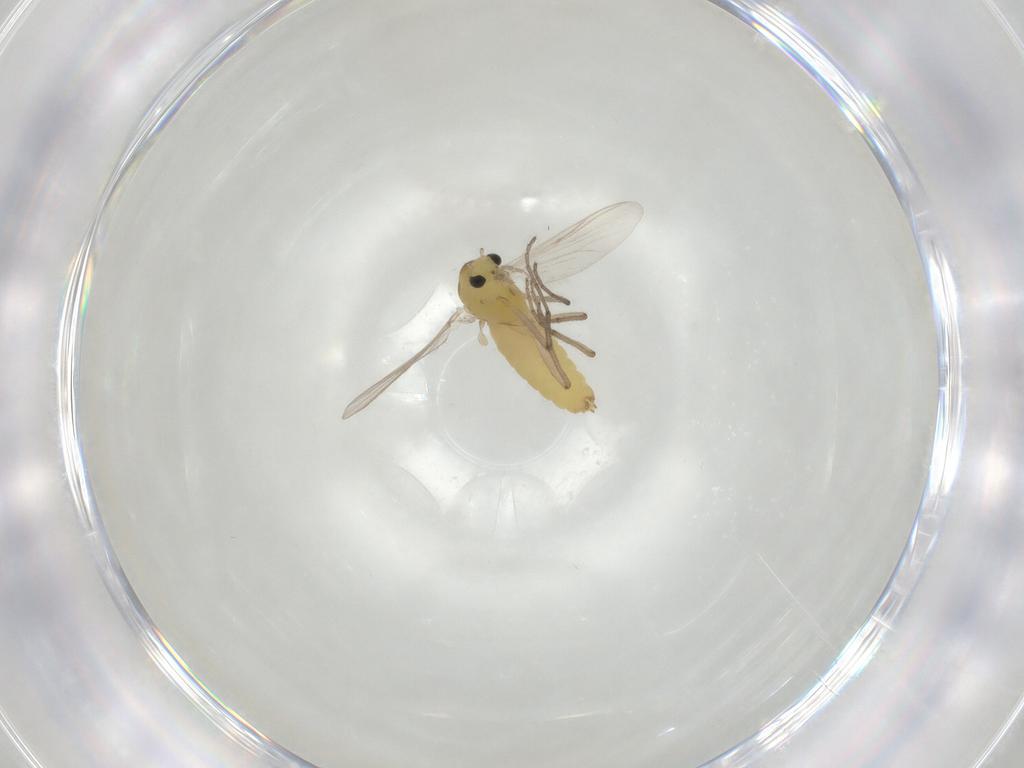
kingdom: Animalia
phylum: Arthropoda
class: Insecta
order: Diptera
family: Chironomidae
